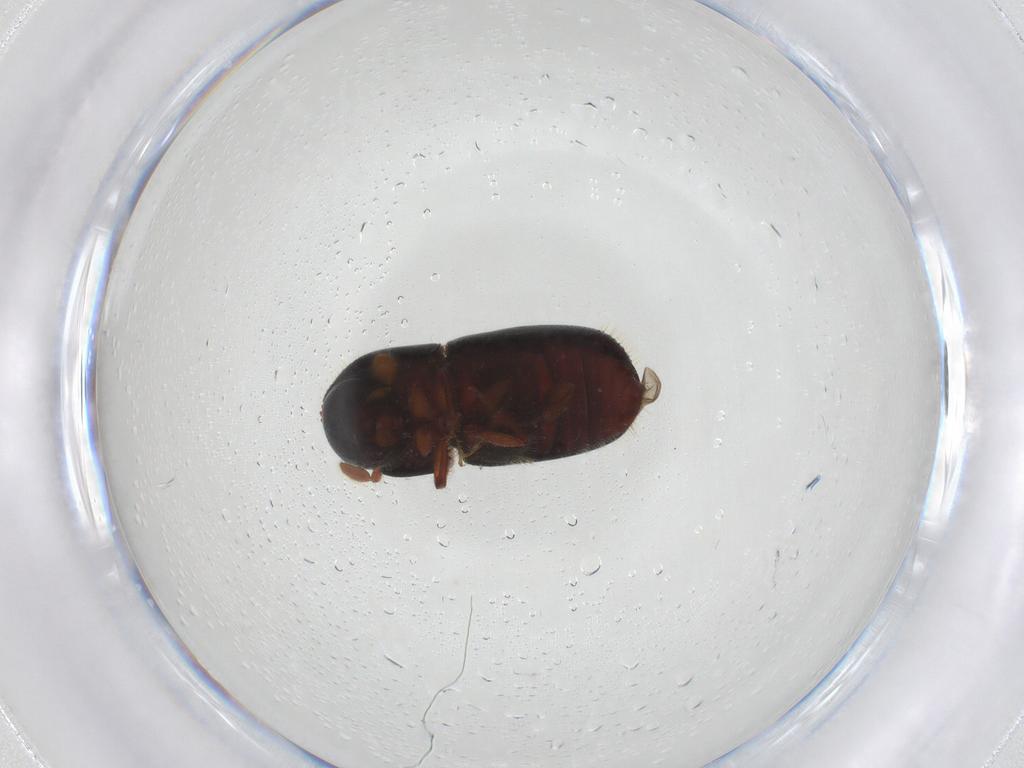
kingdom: Animalia
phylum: Arthropoda
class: Insecta
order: Coleoptera
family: Curculionidae
